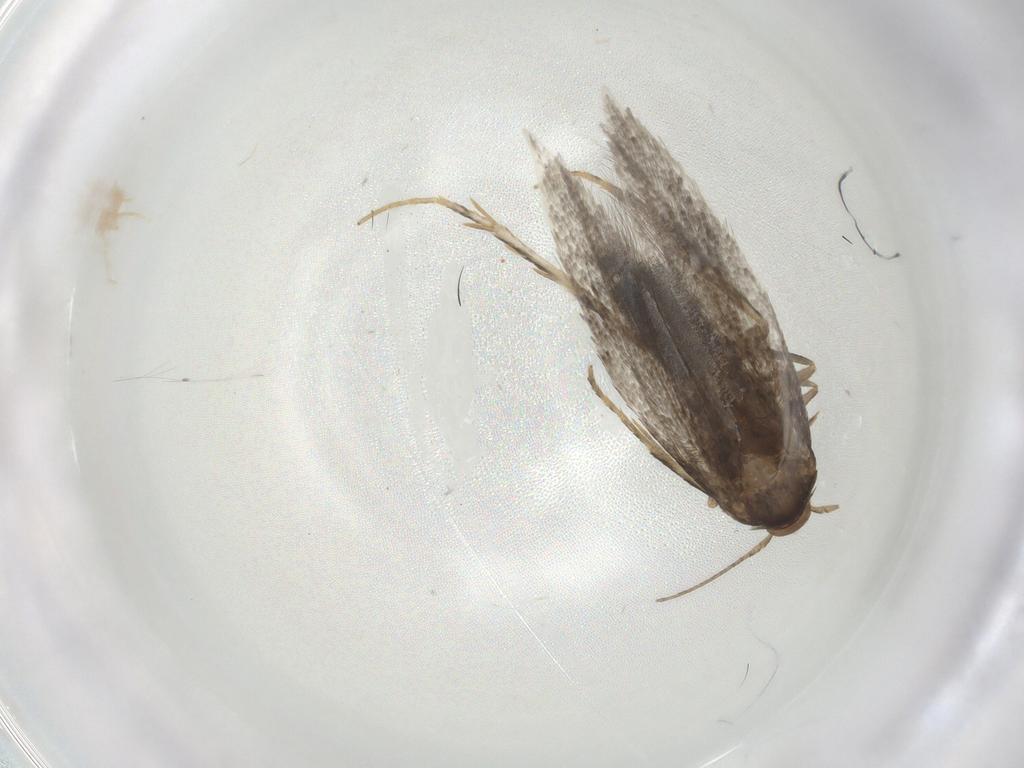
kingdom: Animalia
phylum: Arthropoda
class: Insecta
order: Lepidoptera
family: Elachistidae
